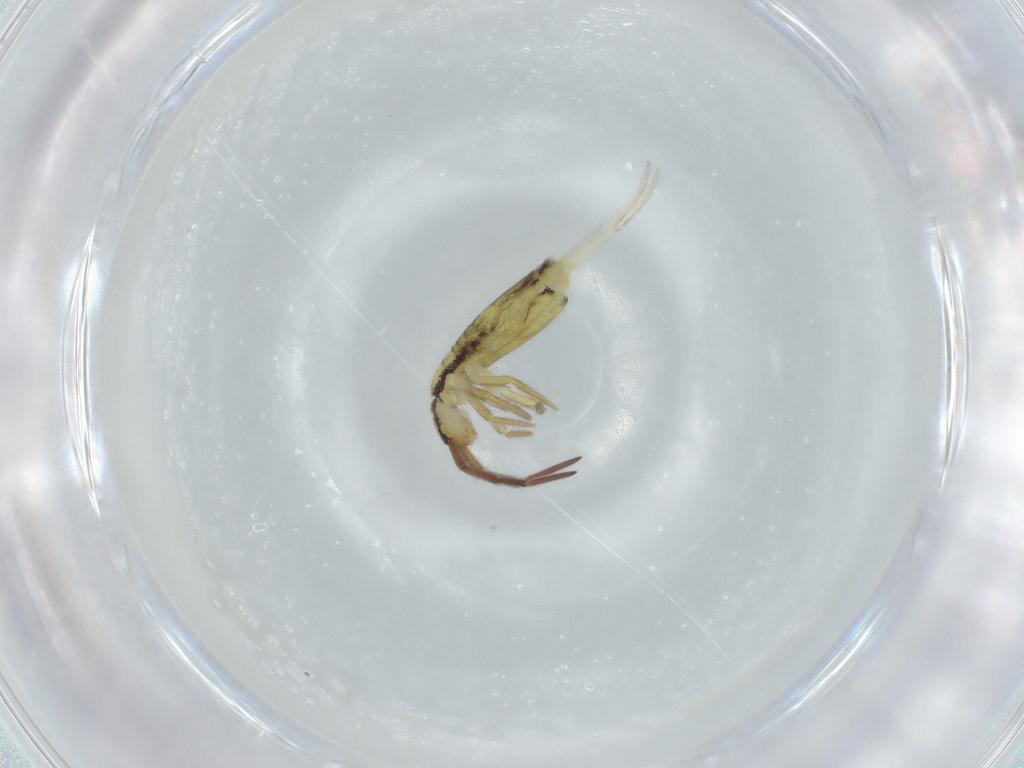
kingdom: Animalia
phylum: Arthropoda
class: Collembola
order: Entomobryomorpha
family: Entomobryidae
